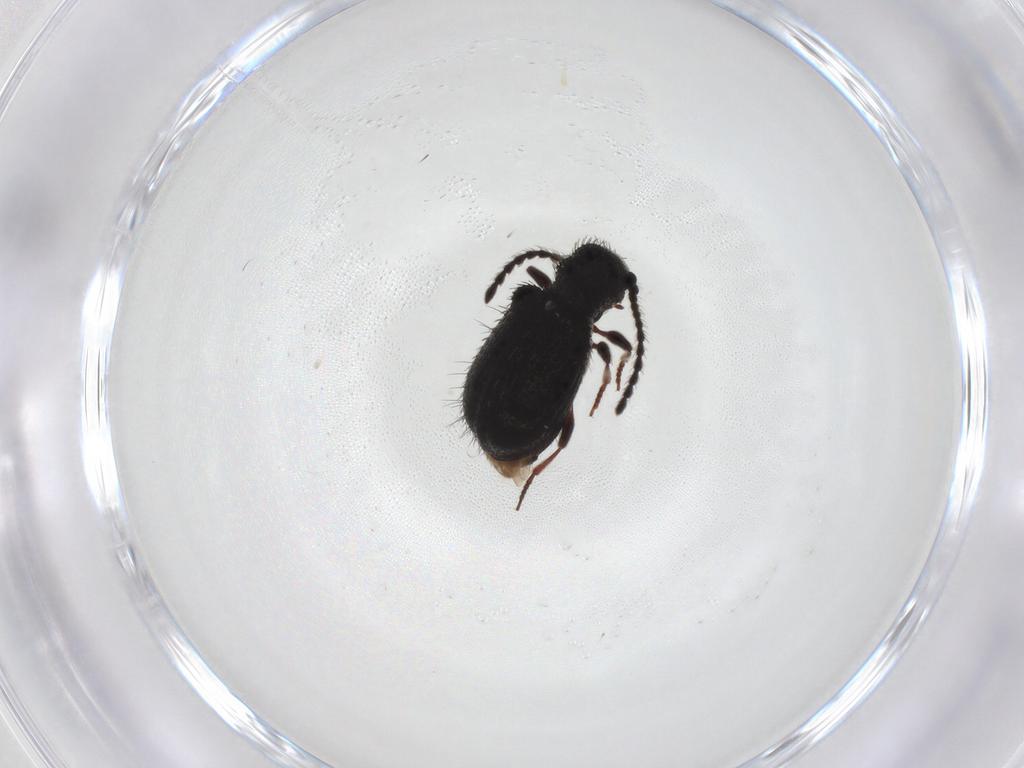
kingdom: Animalia
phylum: Arthropoda
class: Insecta
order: Coleoptera
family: Ptinidae
